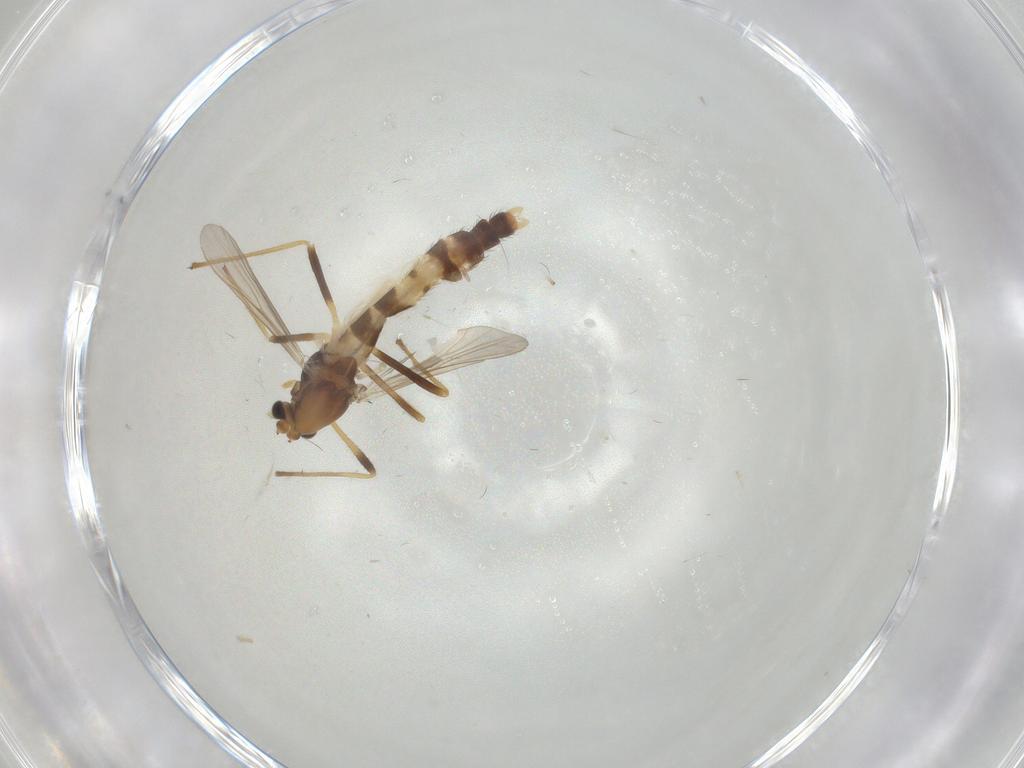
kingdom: Animalia
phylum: Arthropoda
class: Insecta
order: Diptera
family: Chironomidae
